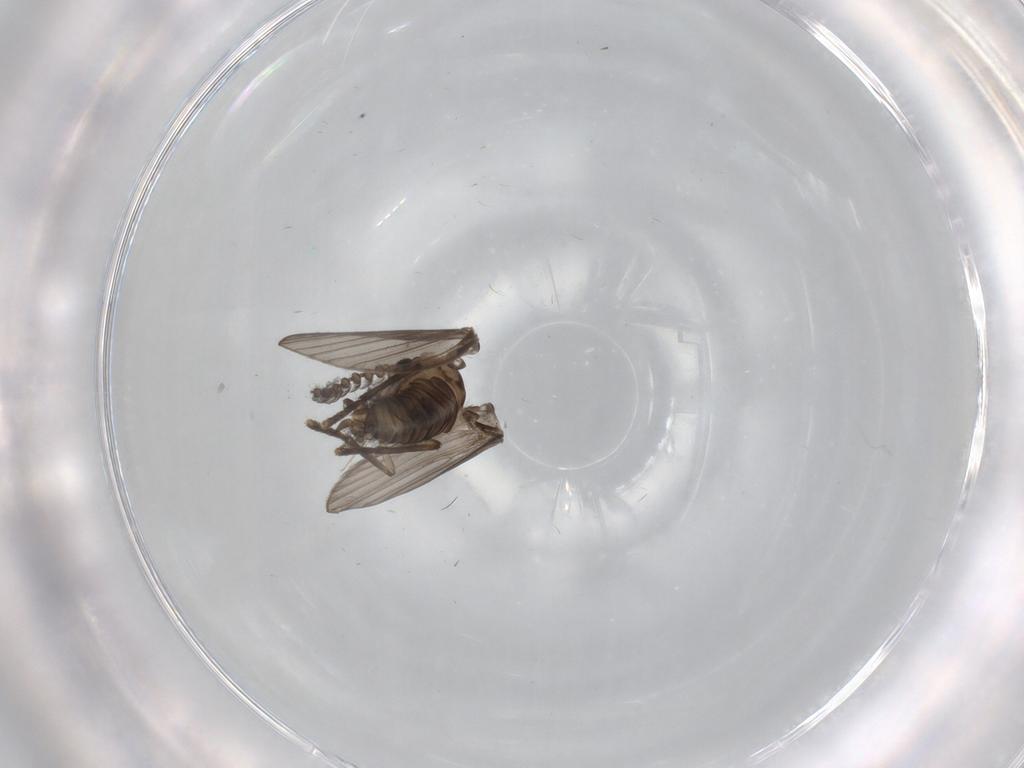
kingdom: Animalia
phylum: Arthropoda
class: Insecta
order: Diptera
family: Psychodidae
